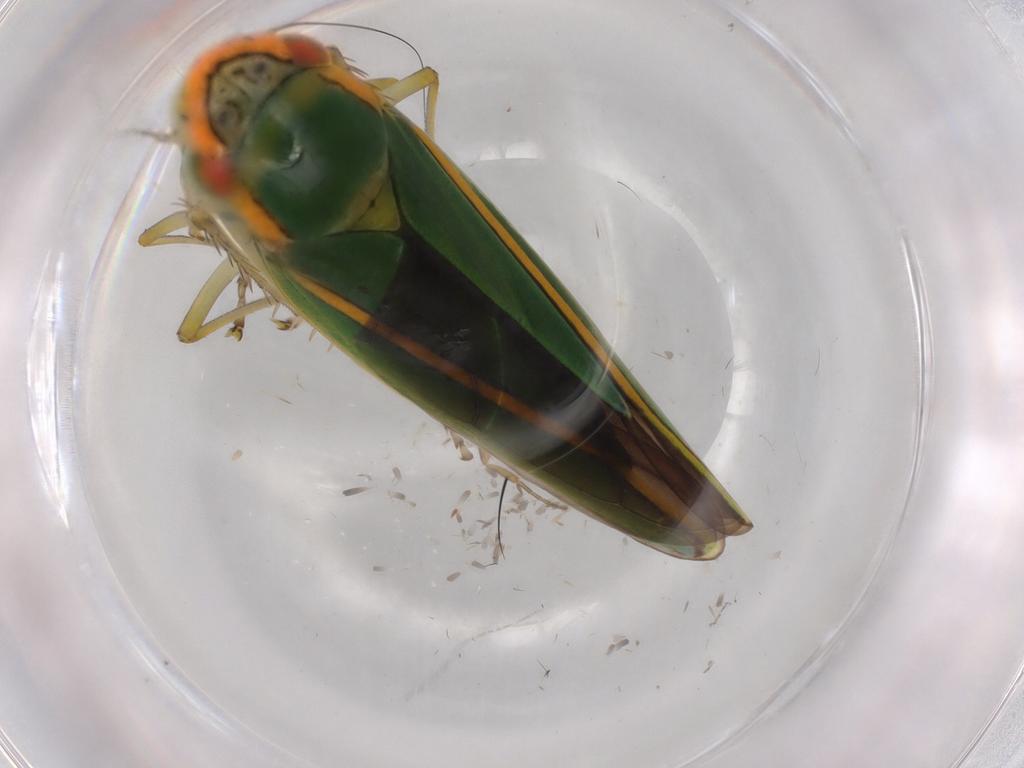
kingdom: Animalia
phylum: Arthropoda
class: Insecta
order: Hemiptera
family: Cicadellidae
